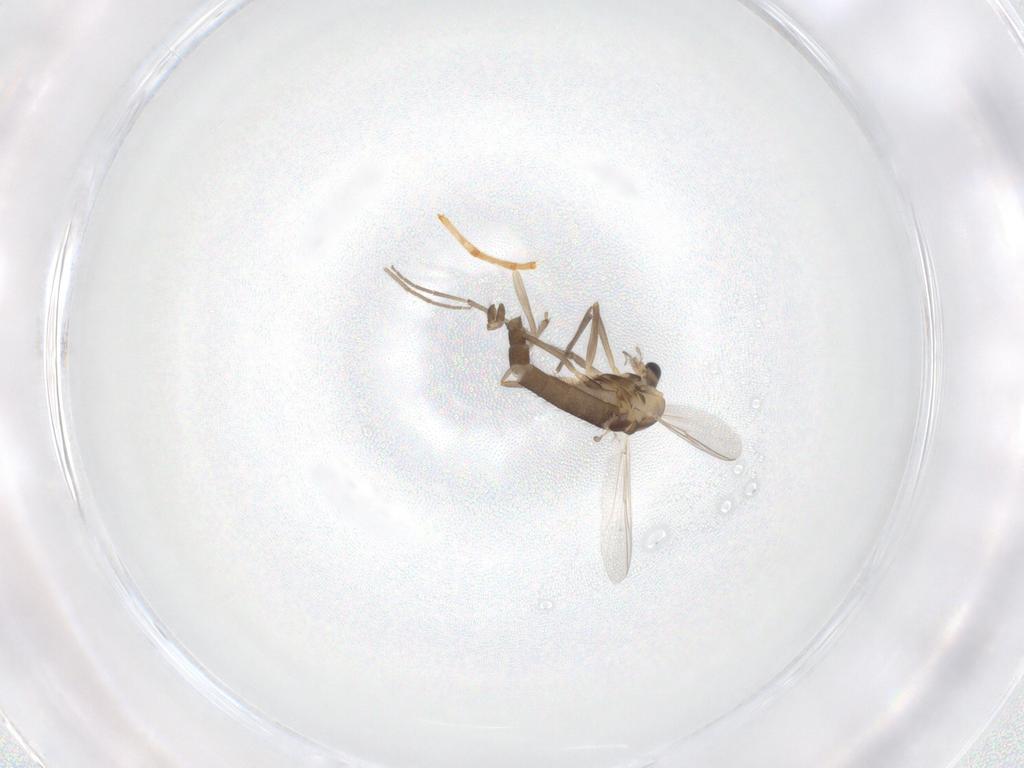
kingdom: Animalia
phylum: Arthropoda
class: Insecta
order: Diptera
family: Chironomidae
